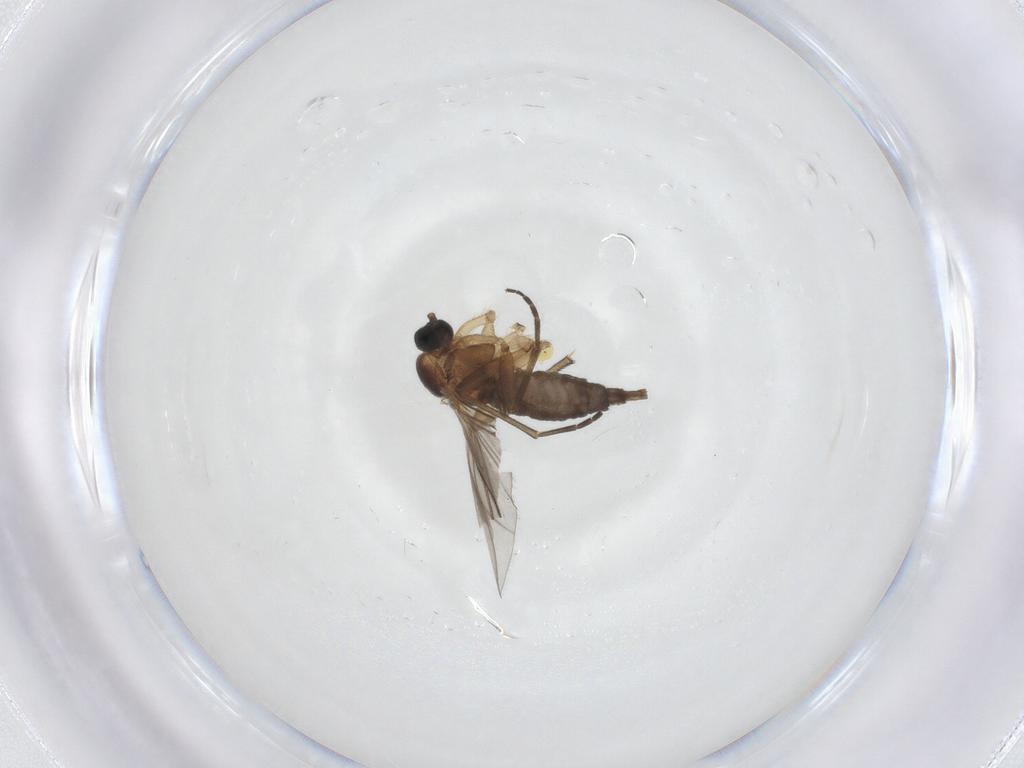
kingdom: Animalia
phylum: Arthropoda
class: Insecta
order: Diptera
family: Sciaridae
